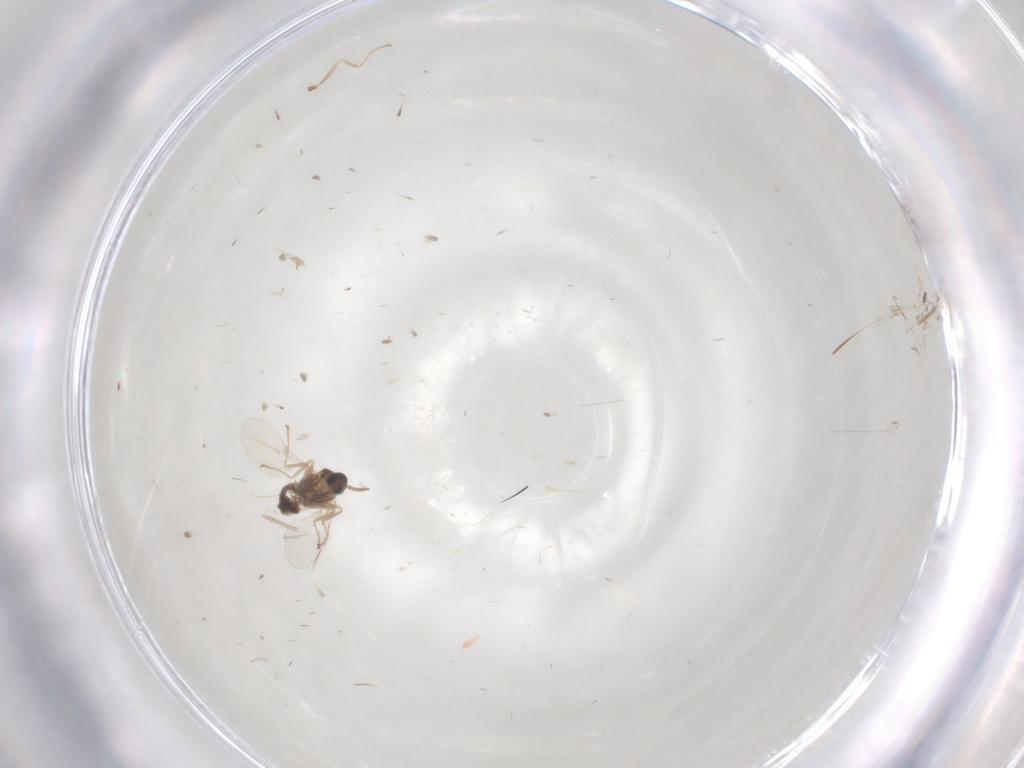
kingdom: Animalia
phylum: Arthropoda
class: Insecta
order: Diptera
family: Cecidomyiidae
